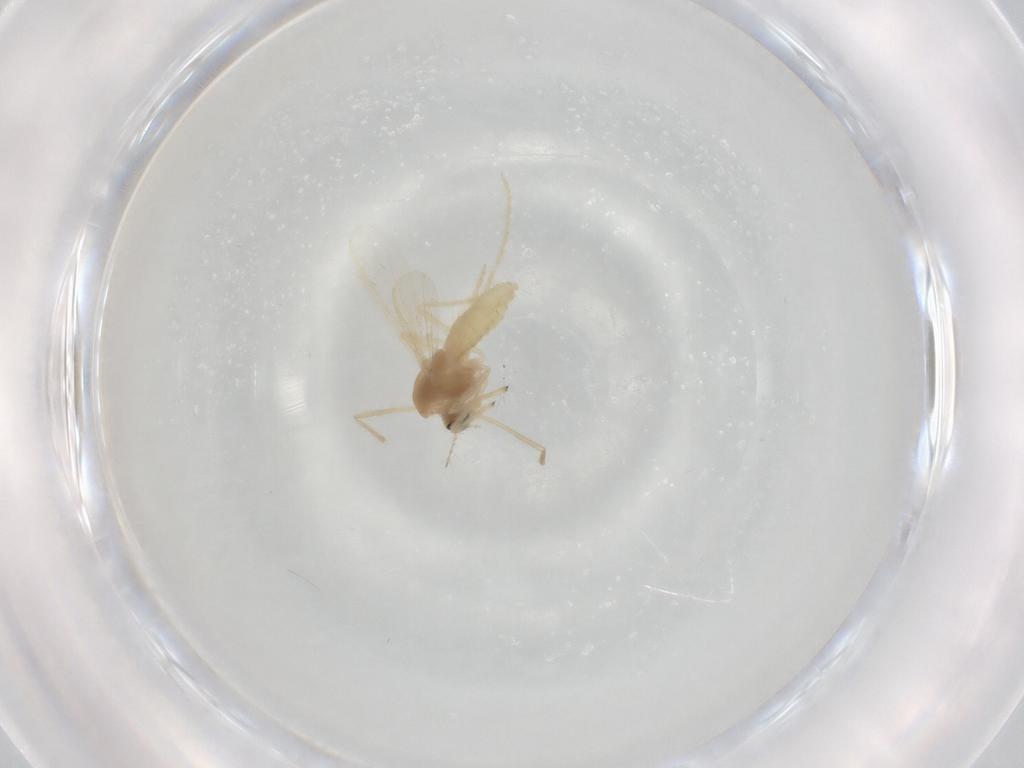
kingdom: Animalia
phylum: Arthropoda
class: Insecta
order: Diptera
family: Chironomidae
